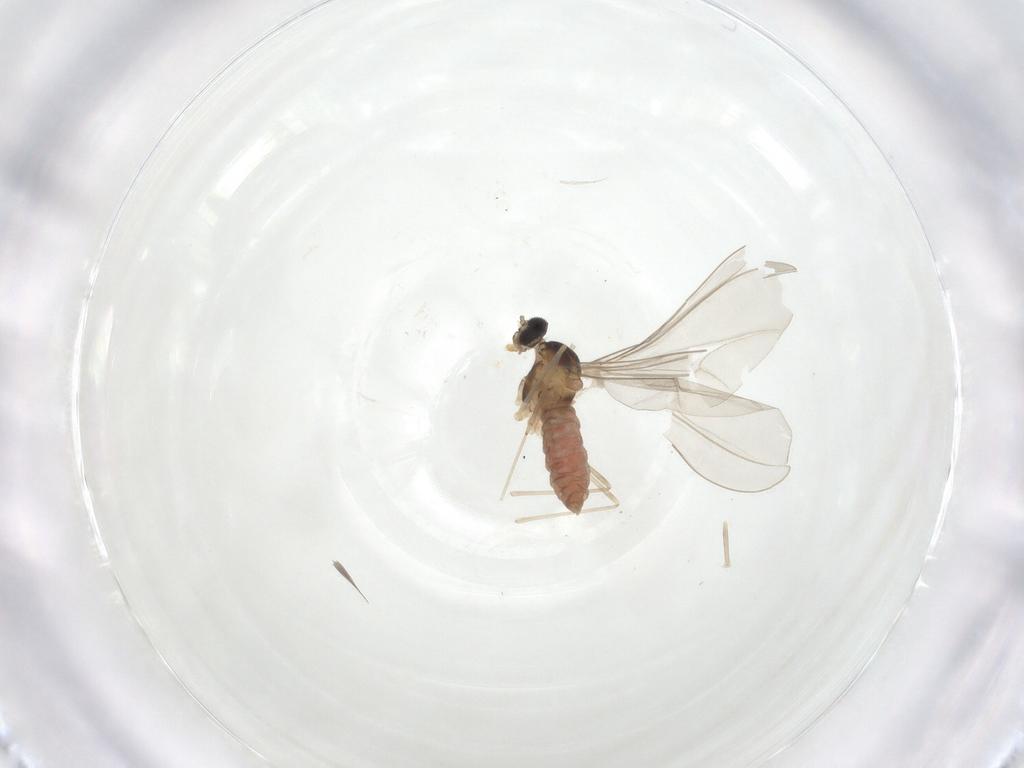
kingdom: Animalia
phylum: Arthropoda
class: Insecta
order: Diptera
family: Cecidomyiidae
